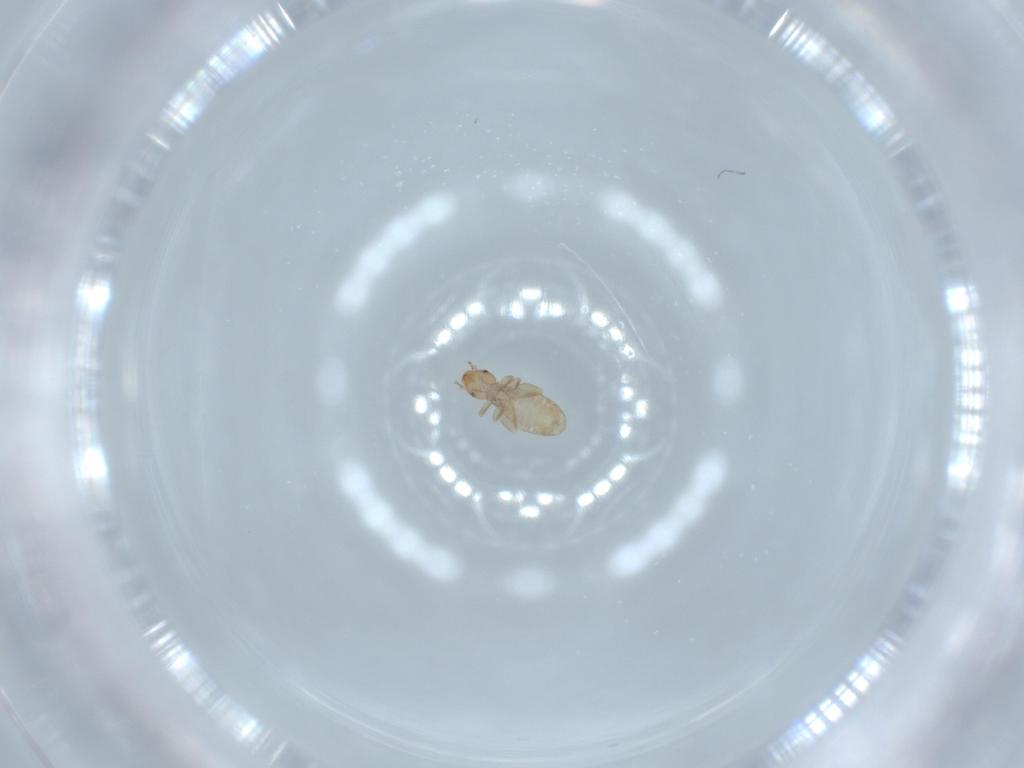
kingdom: Animalia
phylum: Arthropoda
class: Insecta
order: Psocodea
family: Liposcelididae
